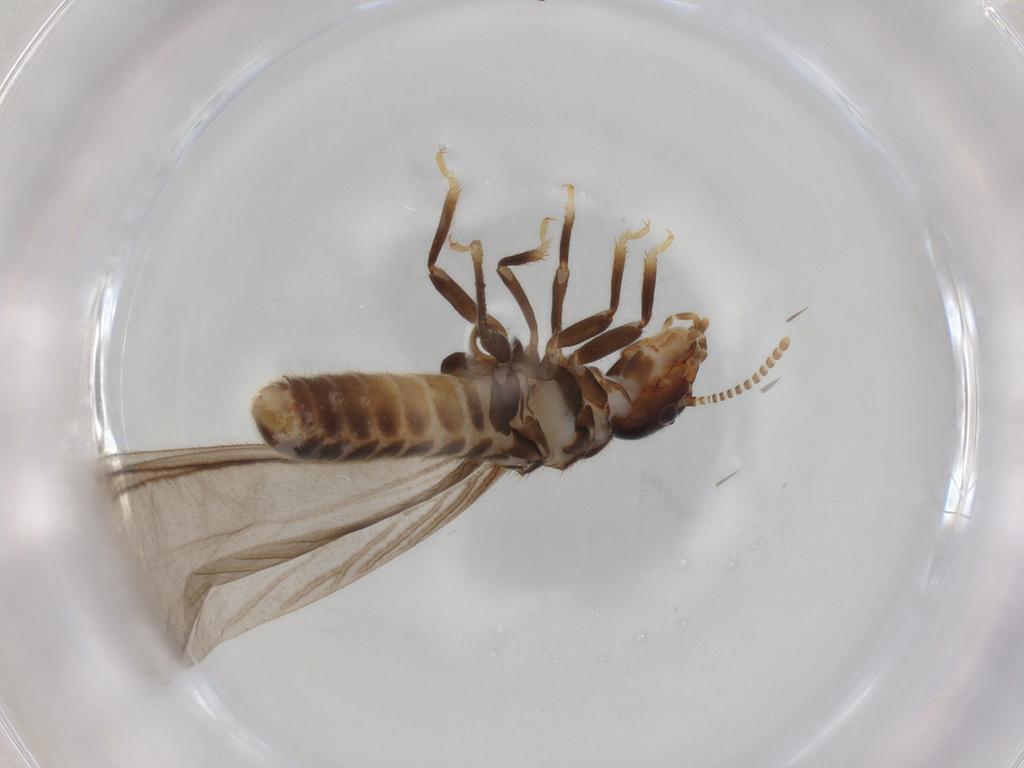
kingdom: Animalia
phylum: Arthropoda
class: Insecta
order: Blattodea
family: Termitidae
